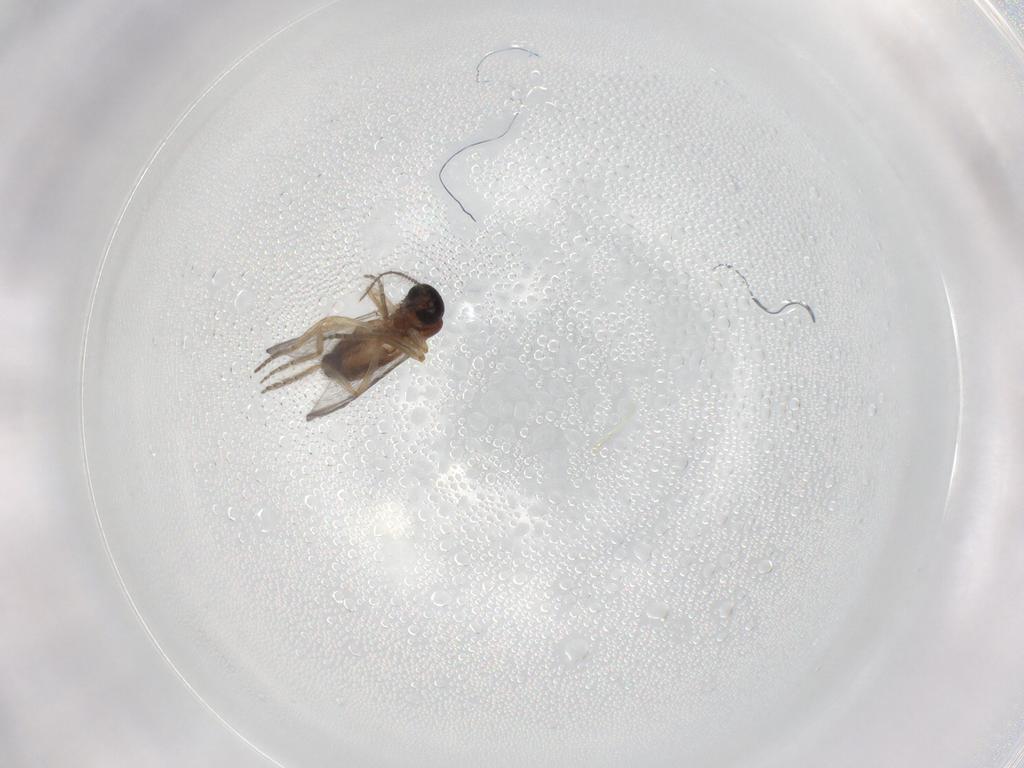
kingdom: Animalia
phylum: Arthropoda
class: Insecta
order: Diptera
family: Ceratopogonidae
